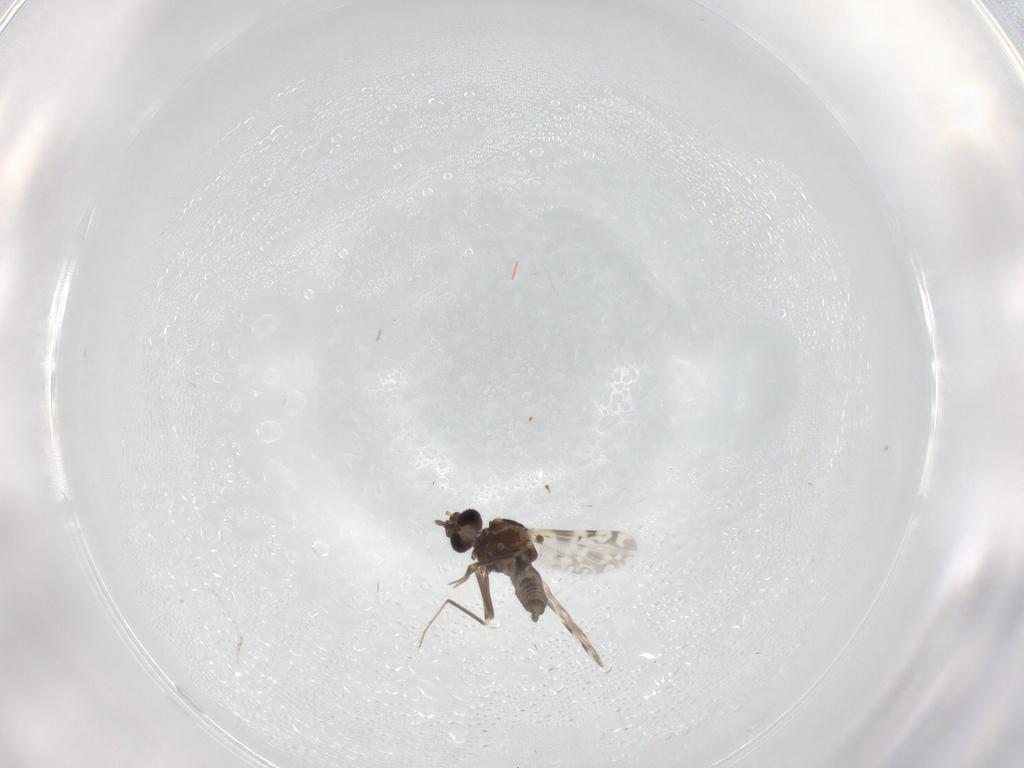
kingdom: Animalia
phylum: Arthropoda
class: Insecta
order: Diptera
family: Ceratopogonidae
